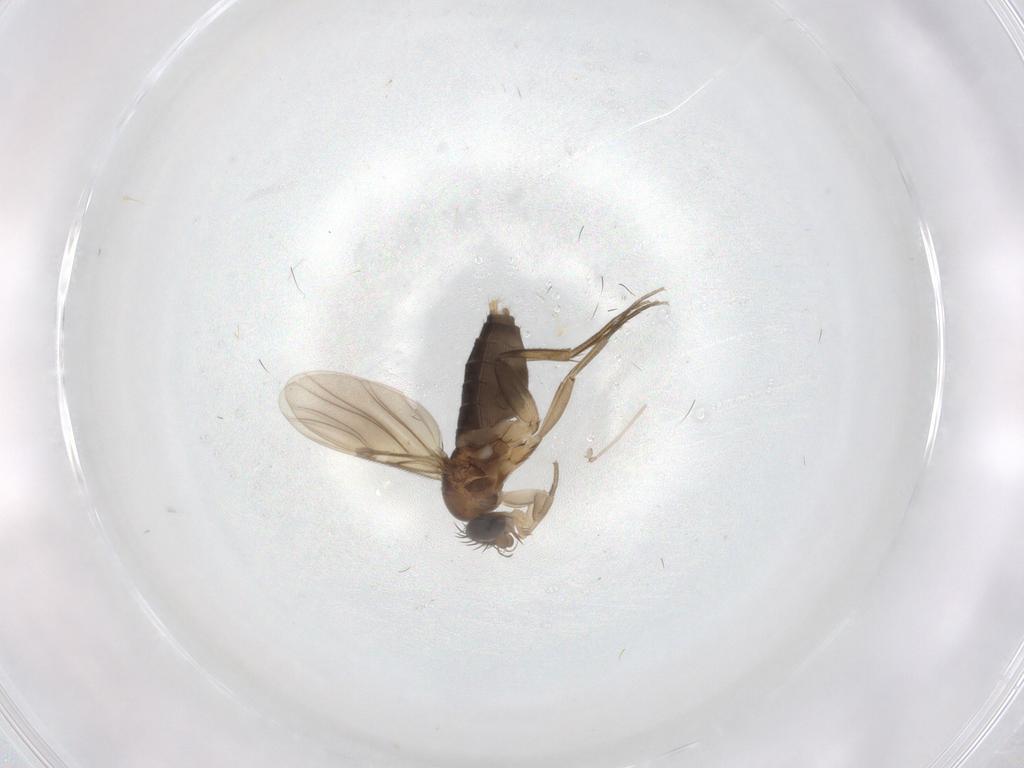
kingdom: Animalia
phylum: Arthropoda
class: Insecta
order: Diptera
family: Phoridae
